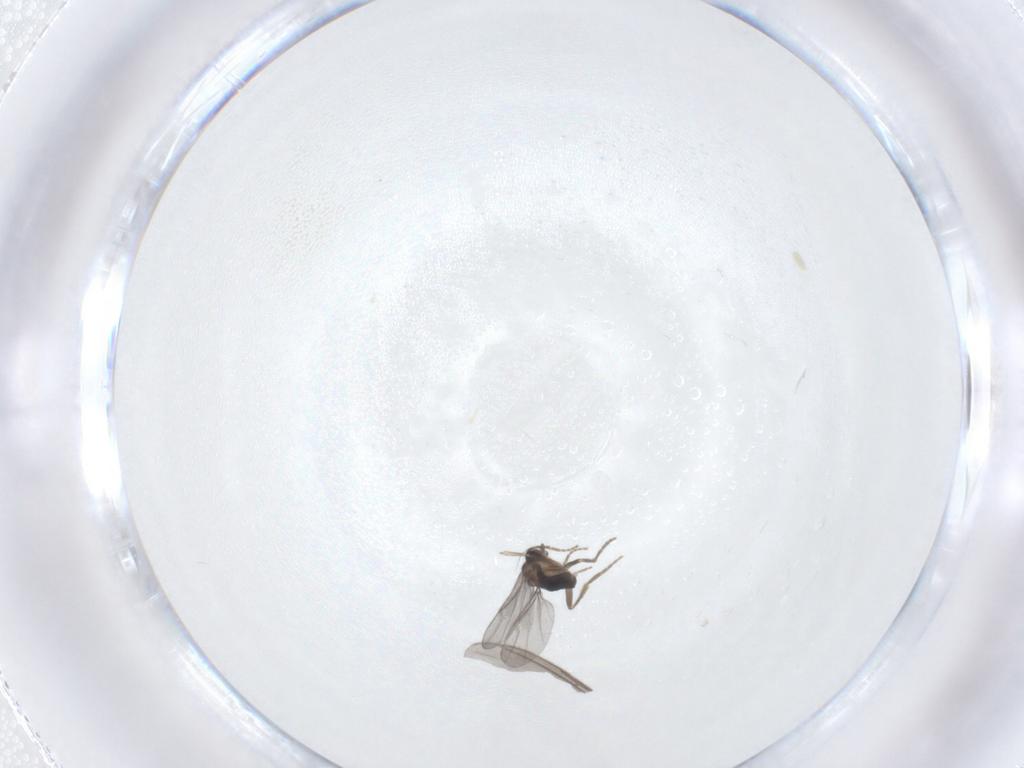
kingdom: Animalia
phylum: Arthropoda
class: Insecta
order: Diptera
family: Phoridae
